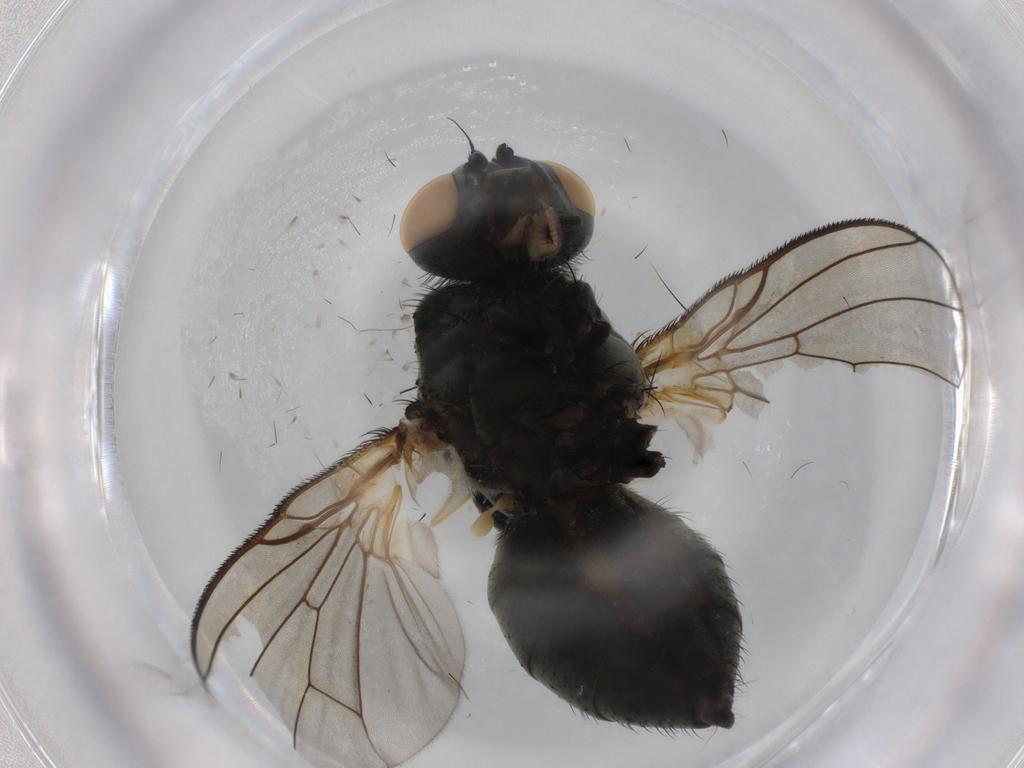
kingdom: Animalia
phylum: Arthropoda
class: Insecta
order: Diptera
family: Muscidae
